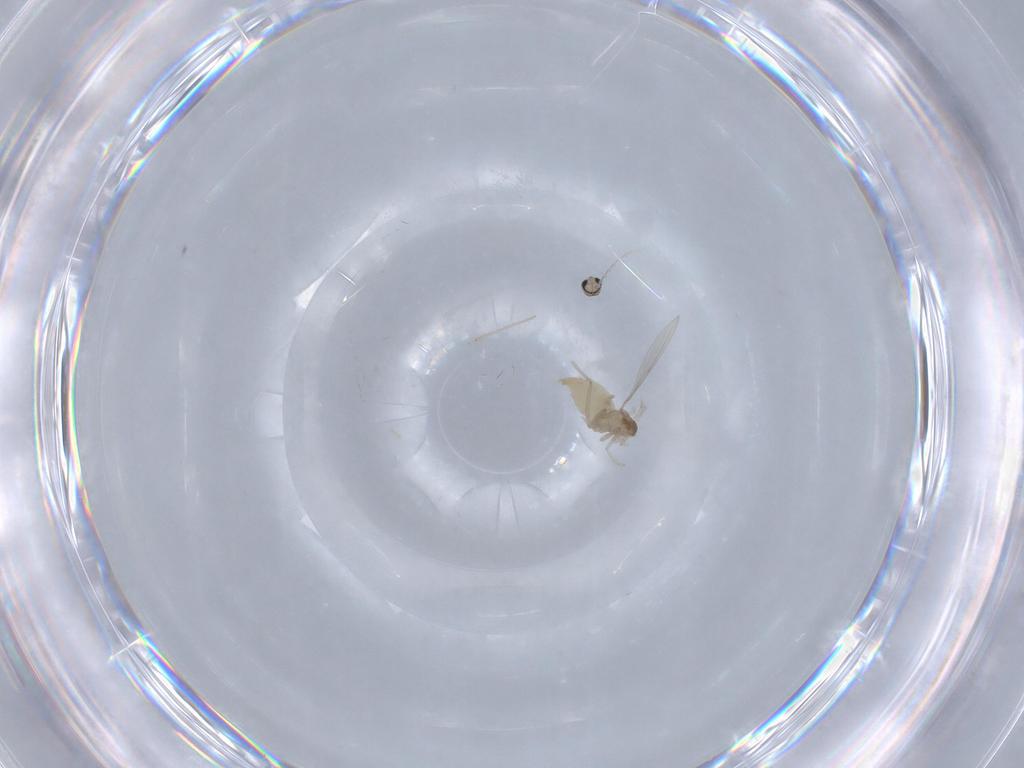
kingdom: Animalia
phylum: Arthropoda
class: Insecta
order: Diptera
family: Cecidomyiidae
